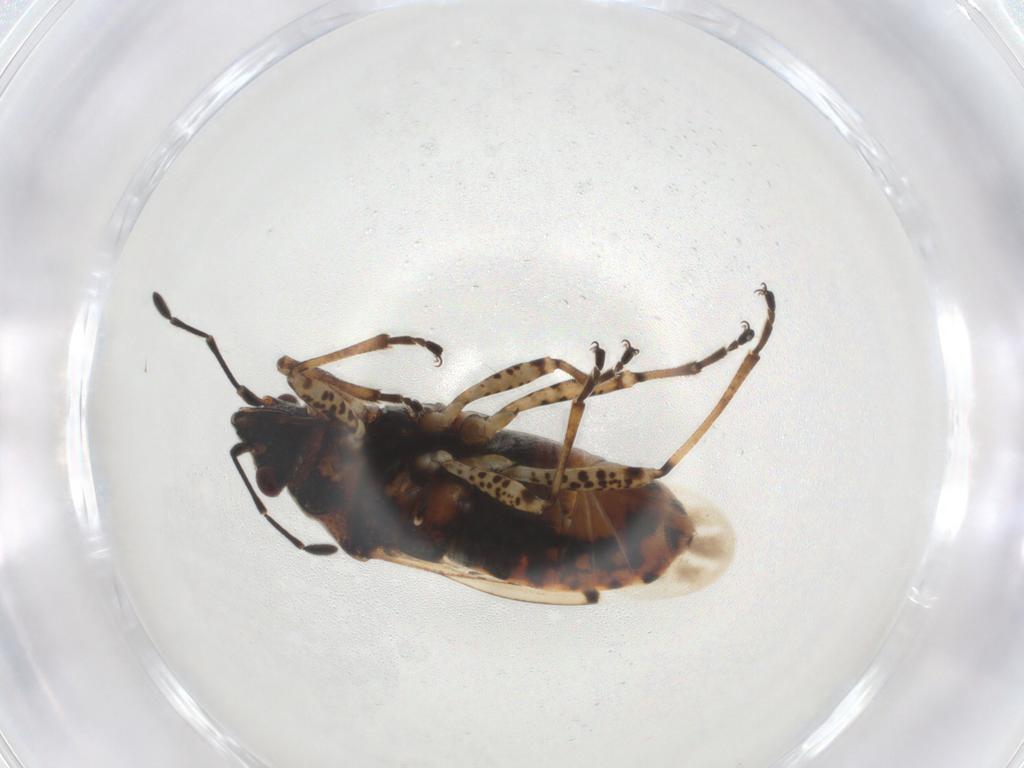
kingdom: Animalia
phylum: Arthropoda
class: Insecta
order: Hemiptera
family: Lygaeidae
